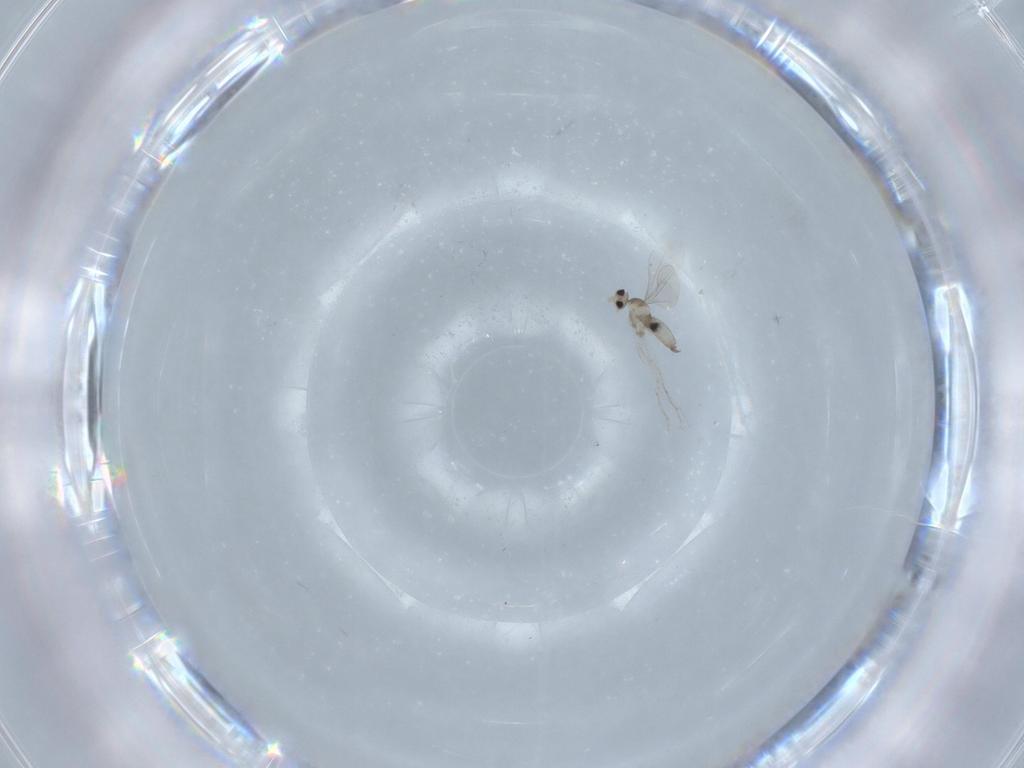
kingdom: Animalia
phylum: Arthropoda
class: Insecta
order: Diptera
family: Cecidomyiidae
